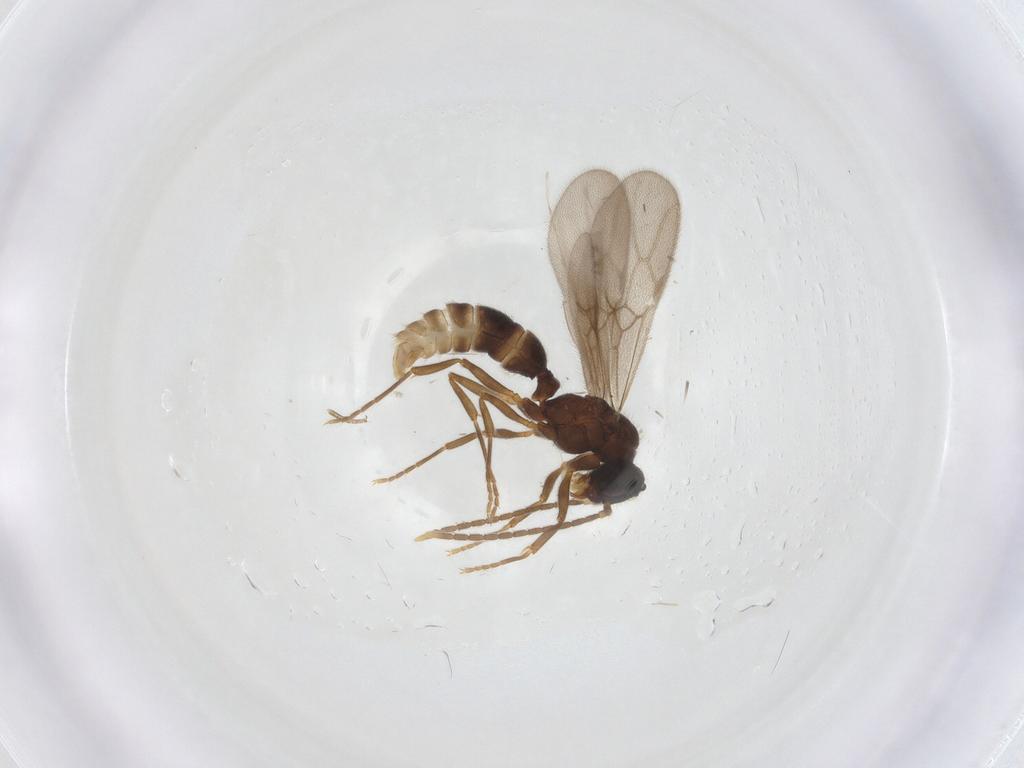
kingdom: Animalia
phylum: Arthropoda
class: Insecta
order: Hymenoptera
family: Formicidae
